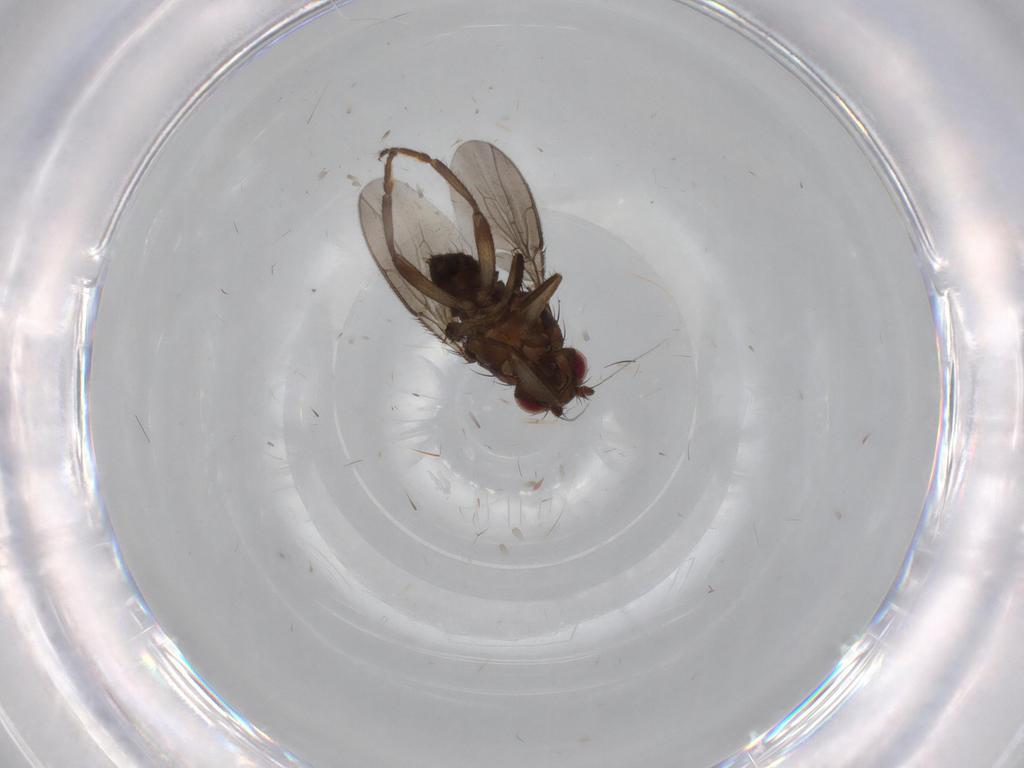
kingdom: Animalia
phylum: Arthropoda
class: Insecta
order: Diptera
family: Sphaeroceridae
